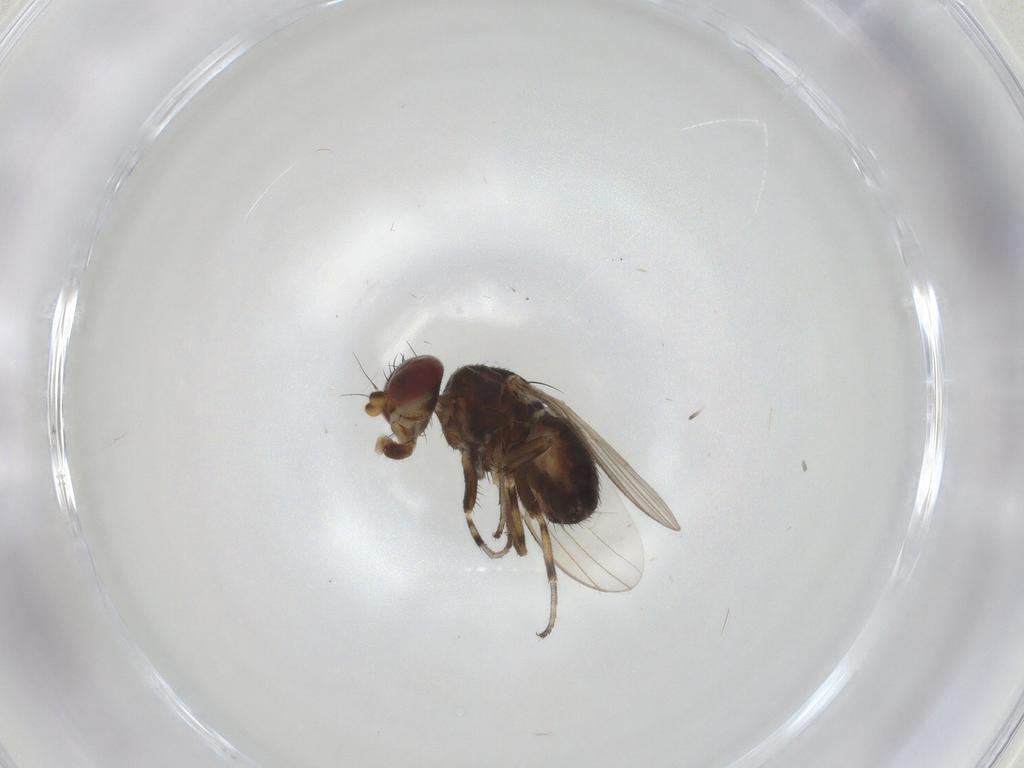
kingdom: Animalia
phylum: Arthropoda
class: Insecta
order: Diptera
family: Heleomyzidae
